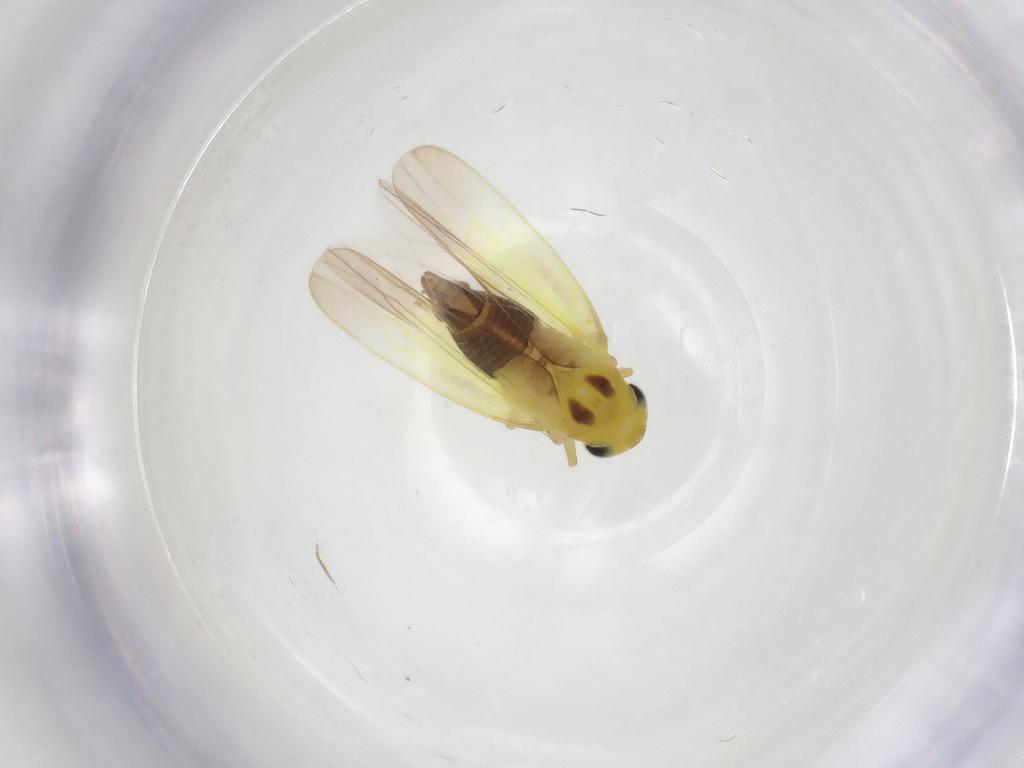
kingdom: Animalia
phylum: Arthropoda
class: Insecta
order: Hemiptera
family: Cicadellidae
